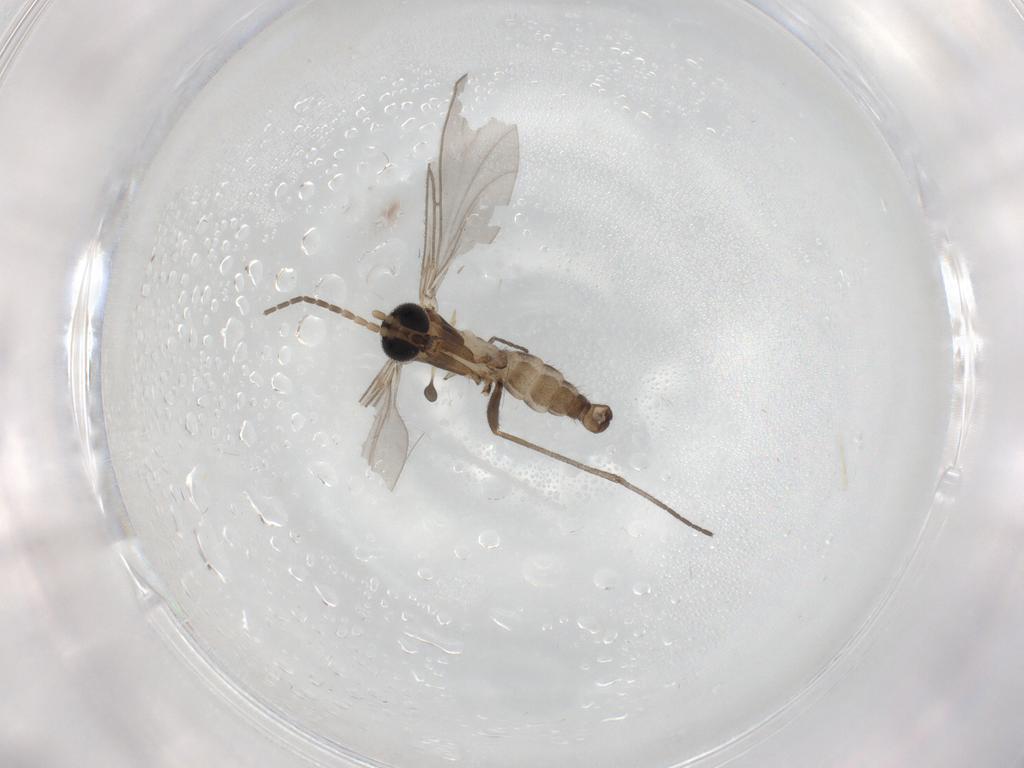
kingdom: Animalia
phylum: Arthropoda
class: Insecta
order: Diptera
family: Sciaridae
